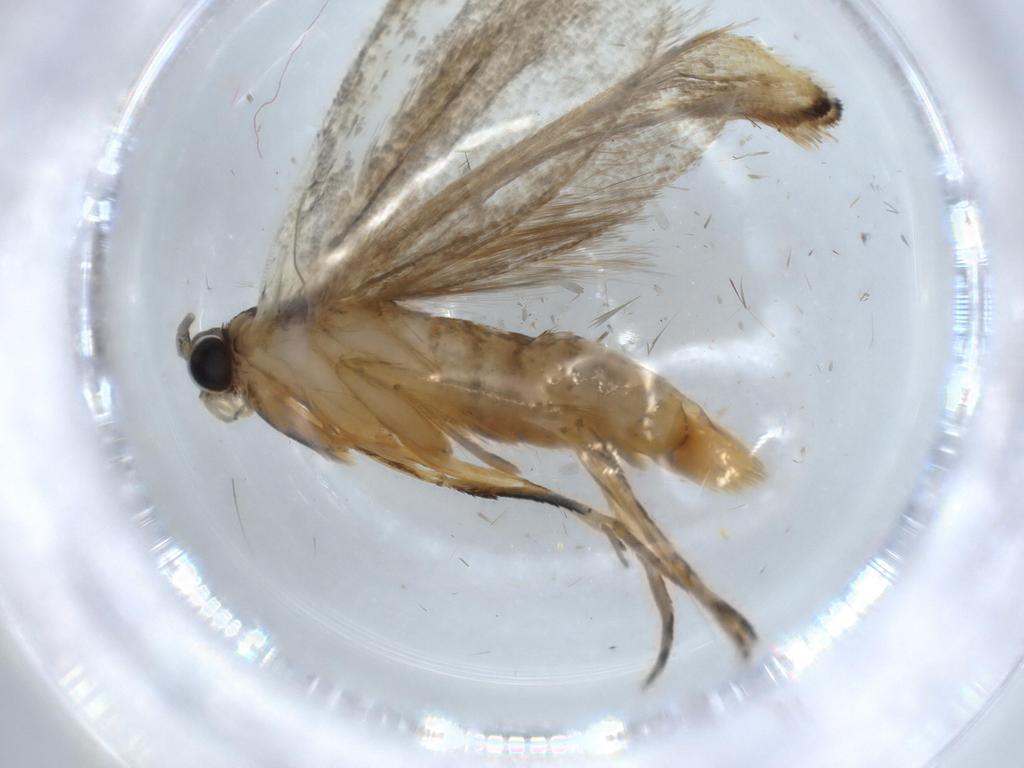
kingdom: Animalia
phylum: Arthropoda
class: Insecta
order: Lepidoptera
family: Tineidae
